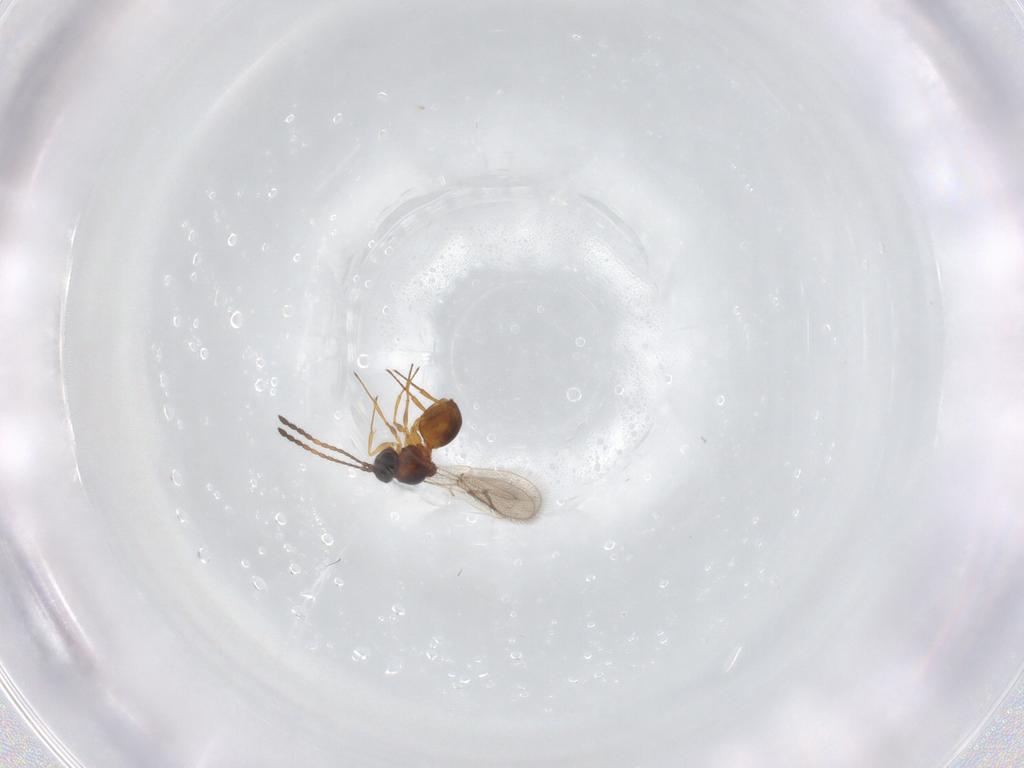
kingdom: Animalia
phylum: Arthropoda
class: Insecta
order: Hymenoptera
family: Figitidae
